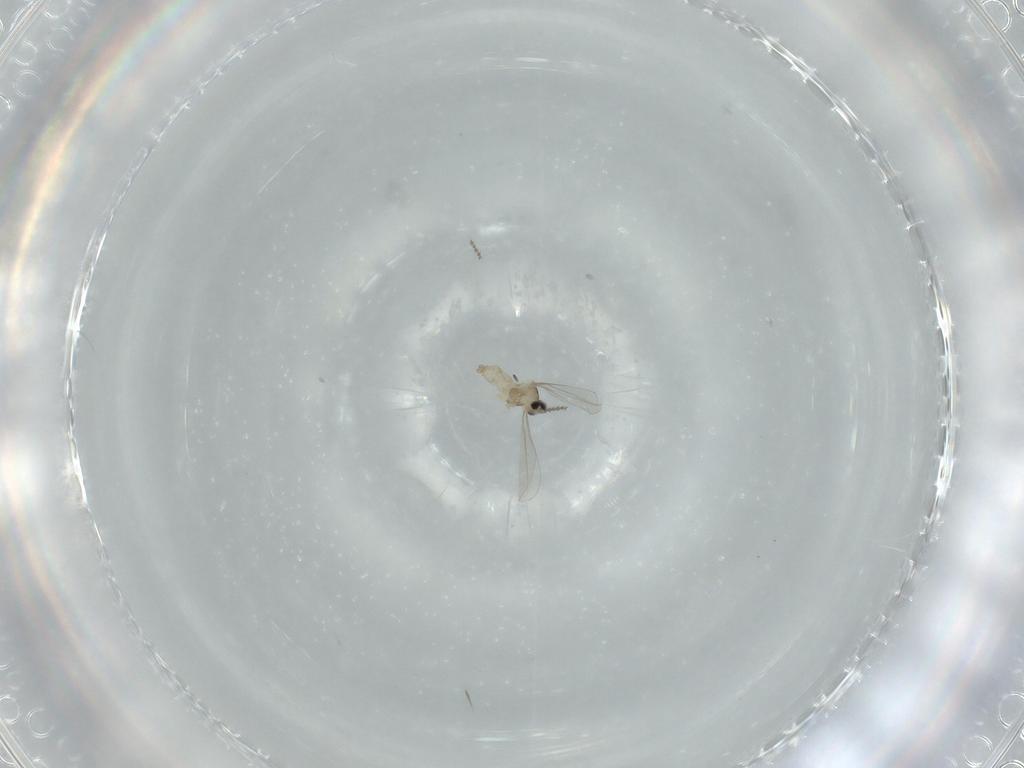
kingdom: Animalia
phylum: Arthropoda
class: Insecta
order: Diptera
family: Cecidomyiidae
